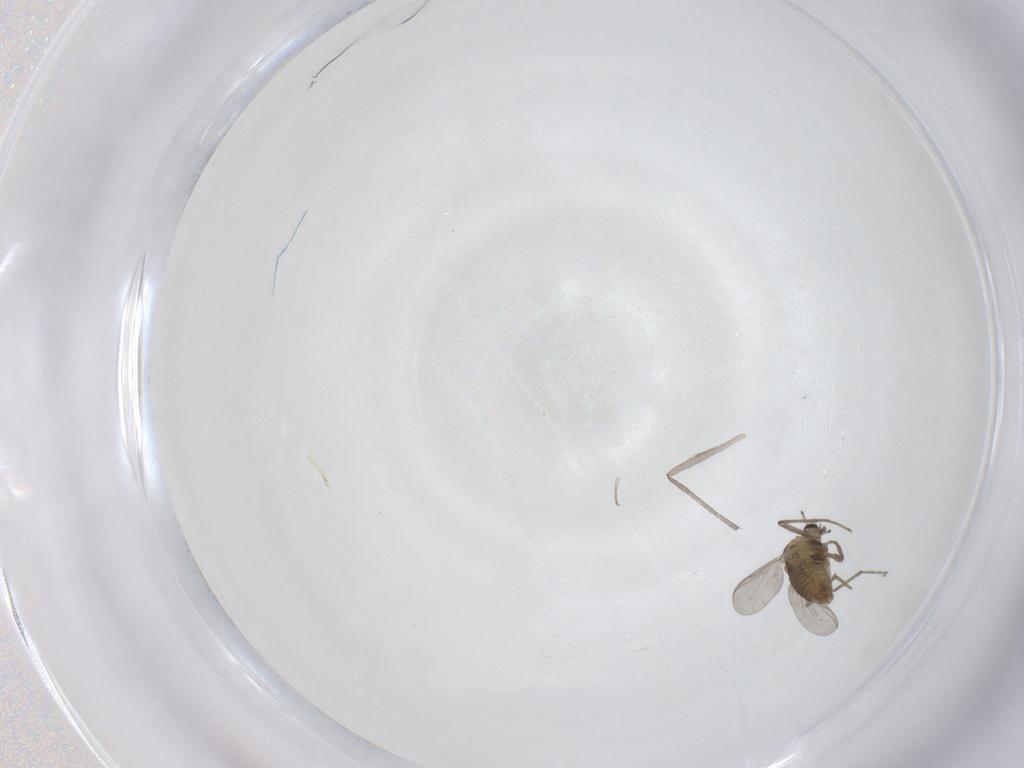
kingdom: Animalia
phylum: Arthropoda
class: Insecta
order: Diptera
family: Chironomidae
